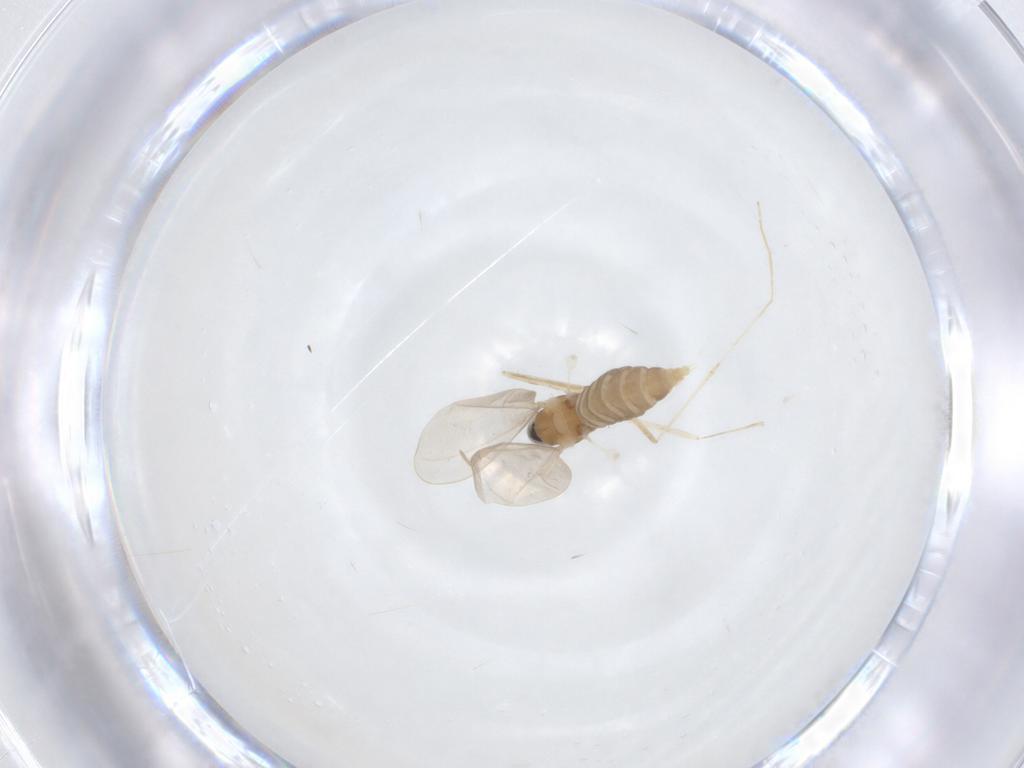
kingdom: Animalia
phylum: Arthropoda
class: Insecta
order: Diptera
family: Cecidomyiidae
